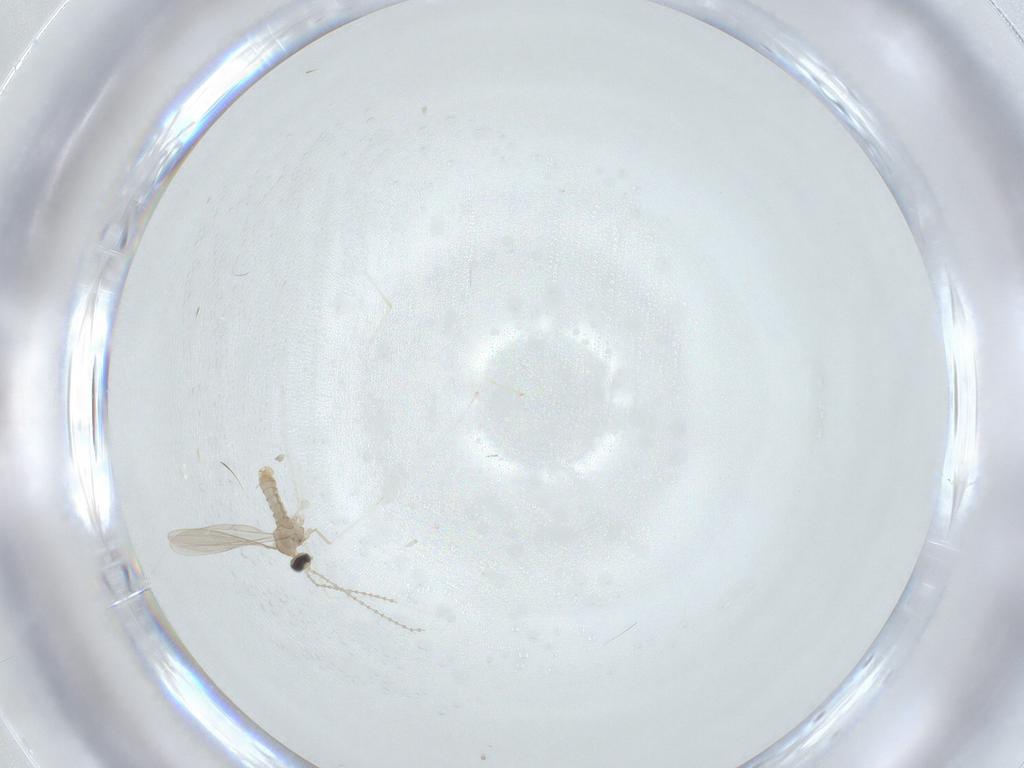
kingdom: Animalia
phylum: Arthropoda
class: Insecta
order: Diptera
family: Cecidomyiidae
